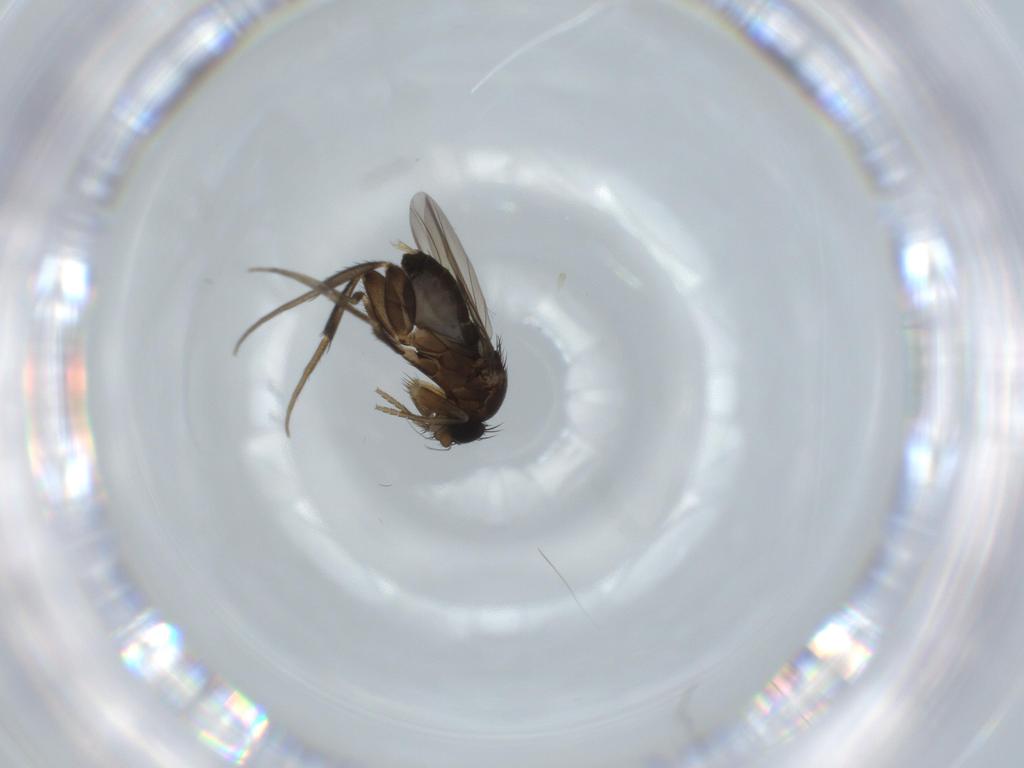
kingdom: Animalia
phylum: Arthropoda
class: Insecta
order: Diptera
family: Phoridae
